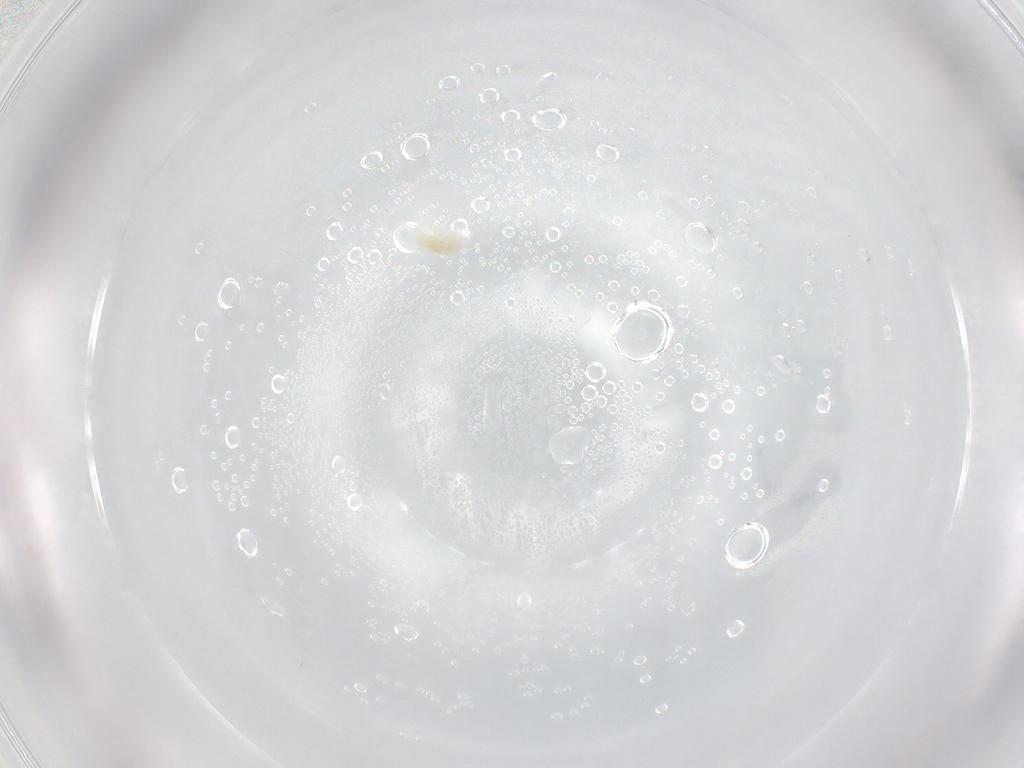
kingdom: Animalia
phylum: Arthropoda
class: Arachnida
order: Trombidiformes
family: Anystidae
